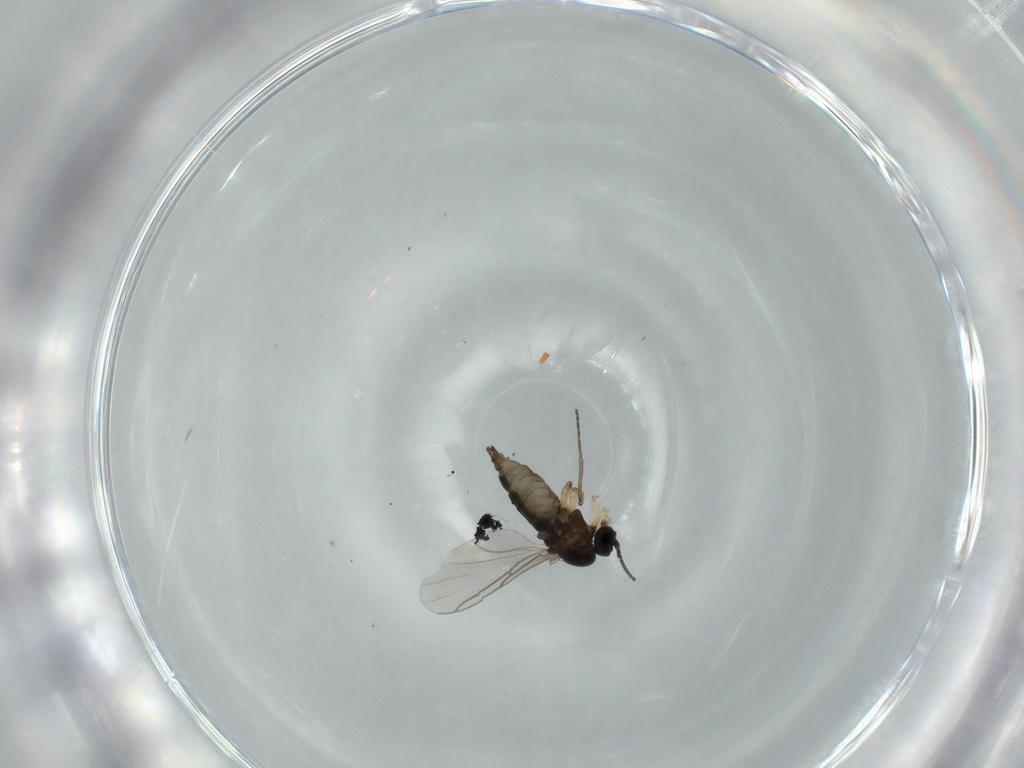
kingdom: Animalia
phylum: Arthropoda
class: Insecta
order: Diptera
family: Sciaridae
